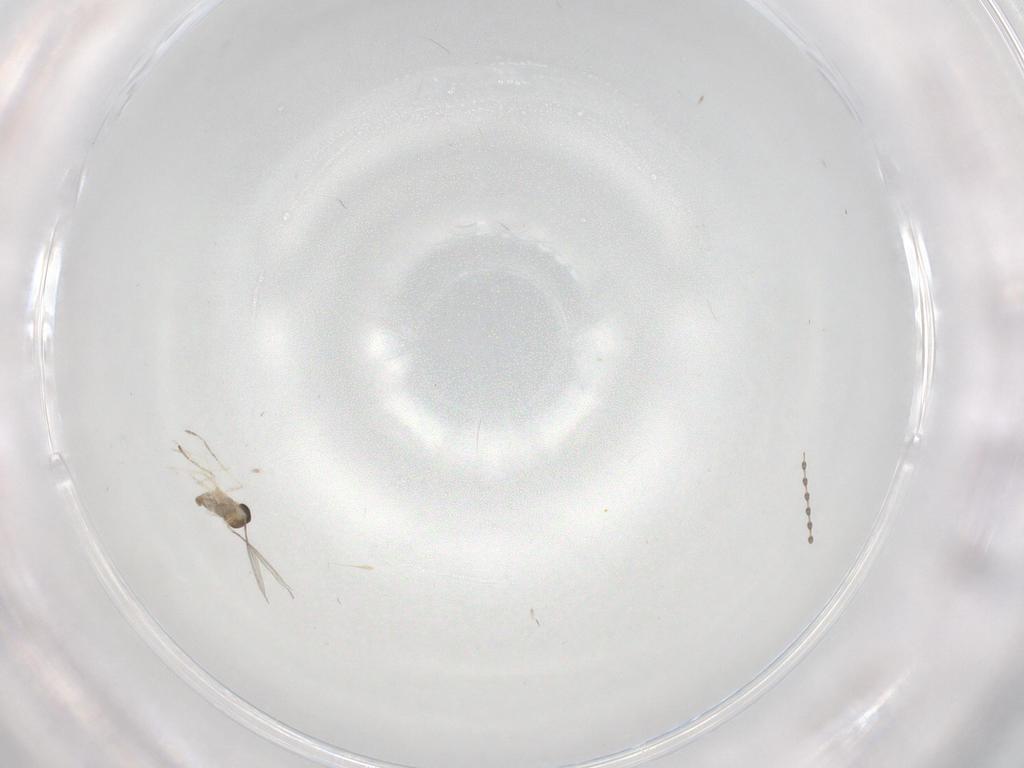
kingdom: Animalia
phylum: Arthropoda
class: Insecta
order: Diptera
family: Cecidomyiidae
